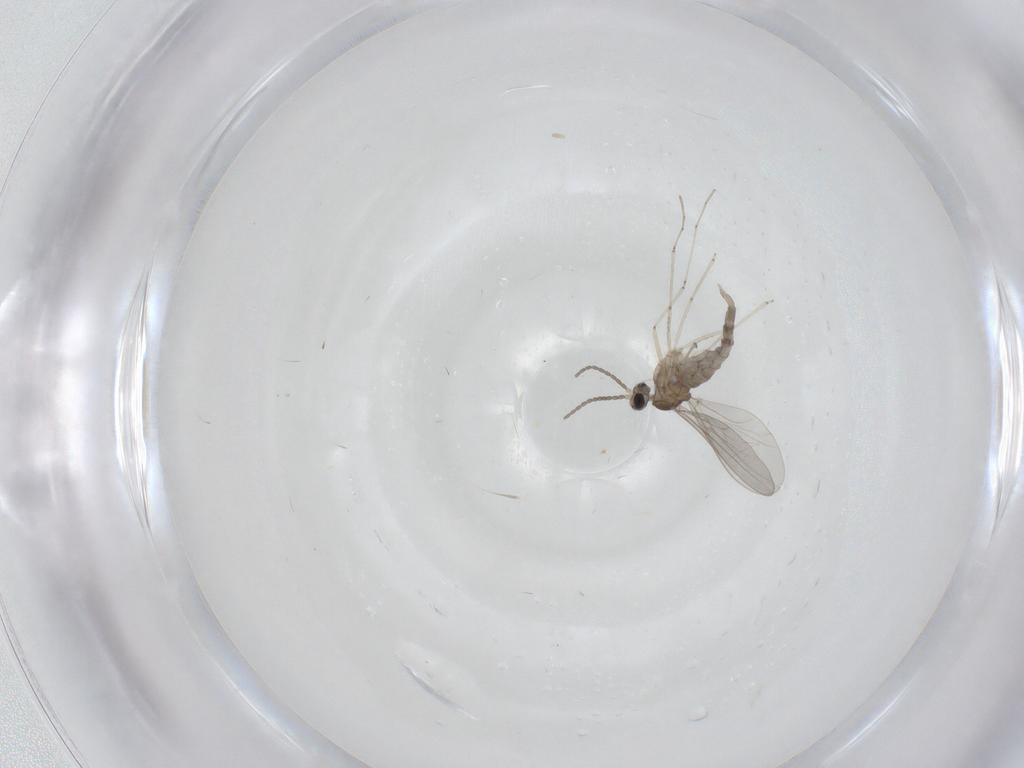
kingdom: Animalia
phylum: Arthropoda
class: Insecta
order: Diptera
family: Cecidomyiidae
